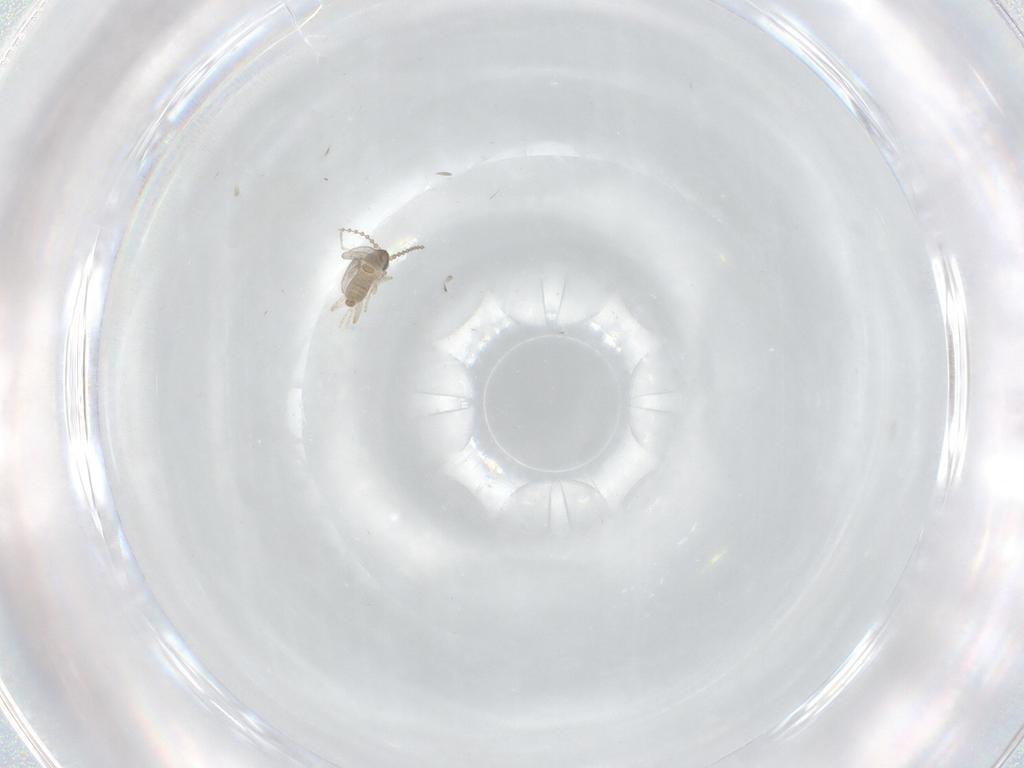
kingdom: Animalia
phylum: Arthropoda
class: Insecta
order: Diptera
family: Cecidomyiidae
